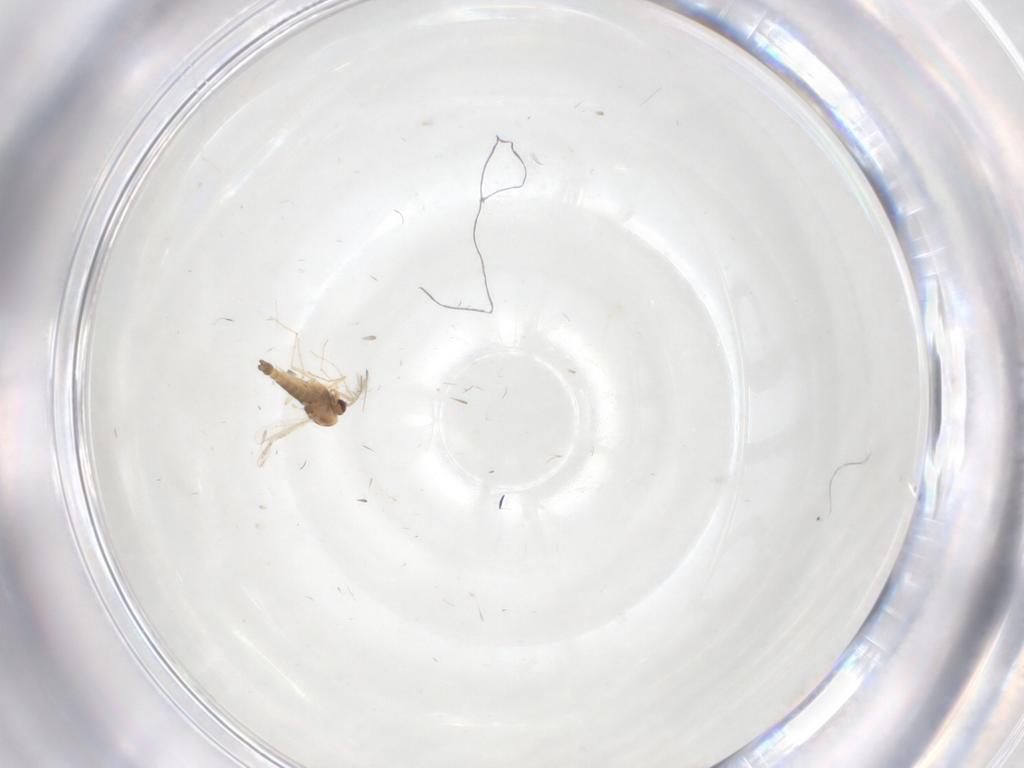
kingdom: Animalia
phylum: Arthropoda
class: Insecta
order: Diptera
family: Chironomidae
